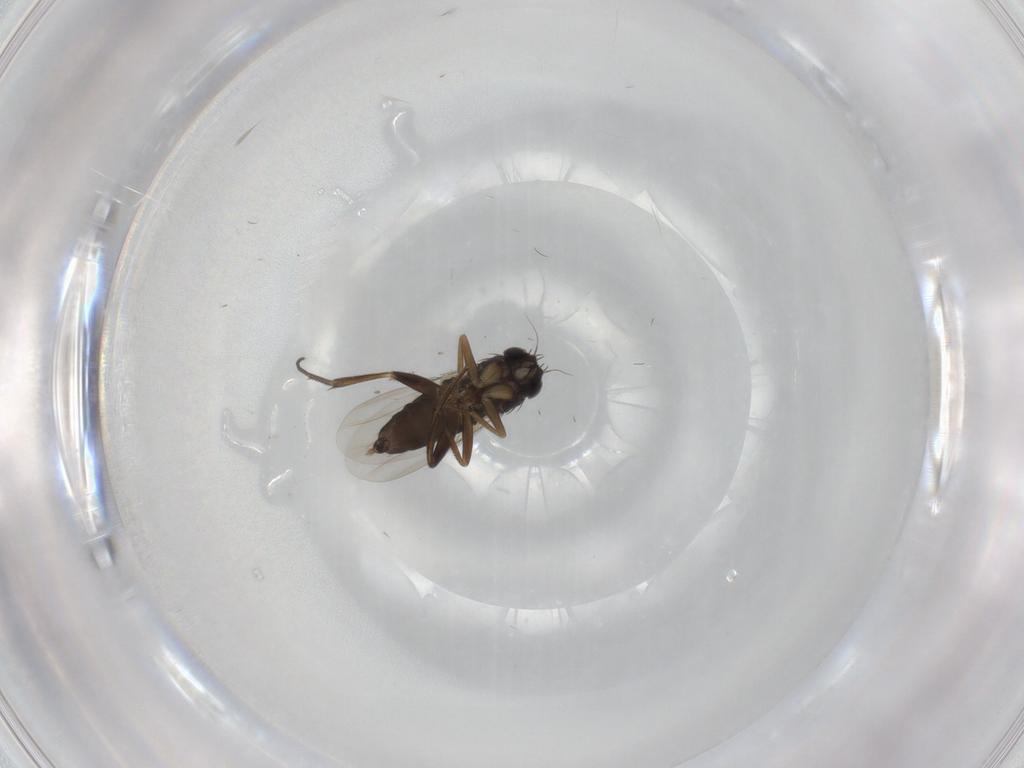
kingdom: Animalia
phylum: Arthropoda
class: Insecta
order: Diptera
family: Phoridae
